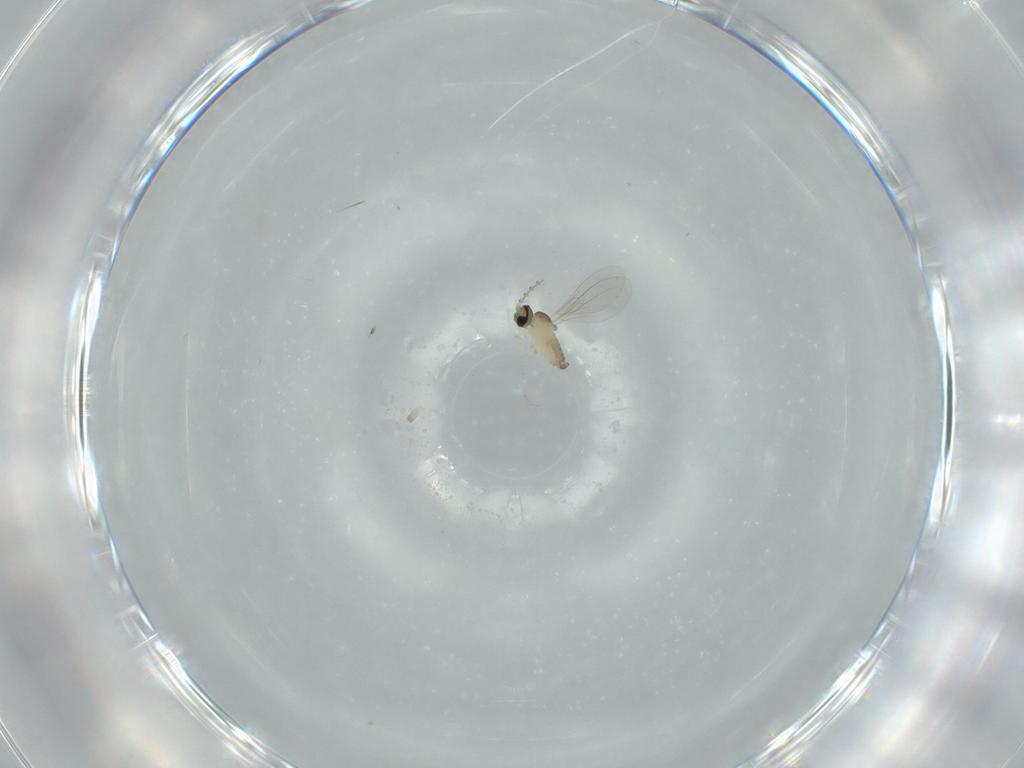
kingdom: Animalia
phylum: Arthropoda
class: Insecta
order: Diptera
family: Cecidomyiidae
